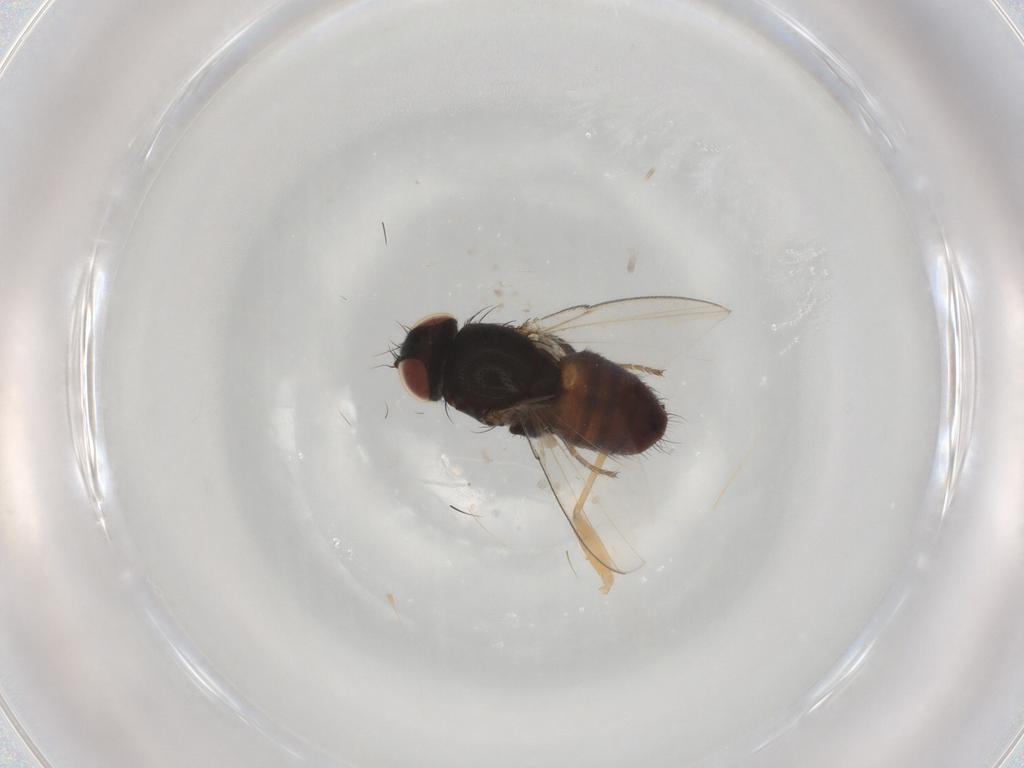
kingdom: Animalia
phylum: Arthropoda
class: Insecta
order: Diptera
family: Milichiidae
